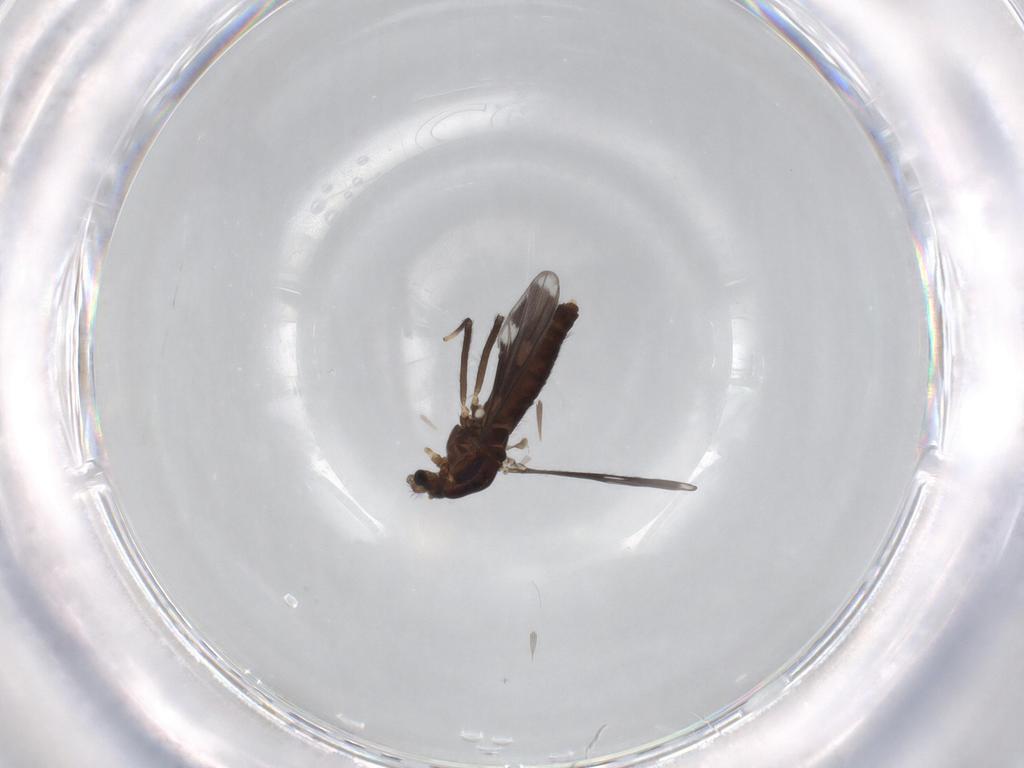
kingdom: Animalia
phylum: Arthropoda
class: Insecta
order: Diptera
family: Chironomidae
